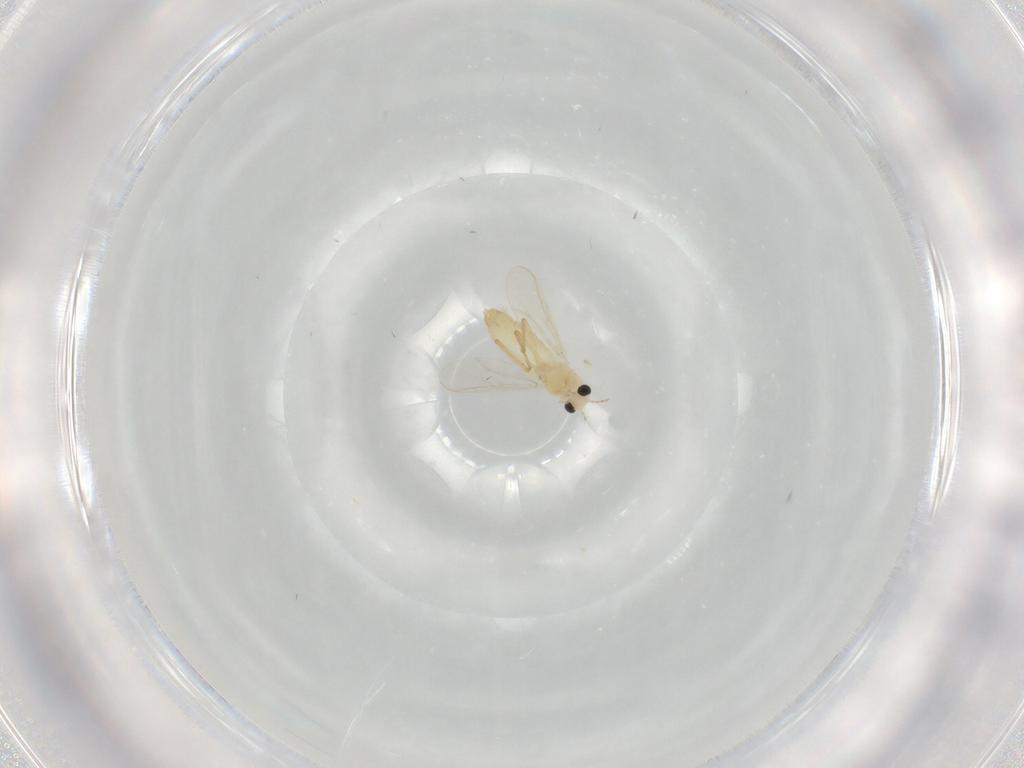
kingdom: Animalia
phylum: Arthropoda
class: Insecta
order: Diptera
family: Chironomidae
